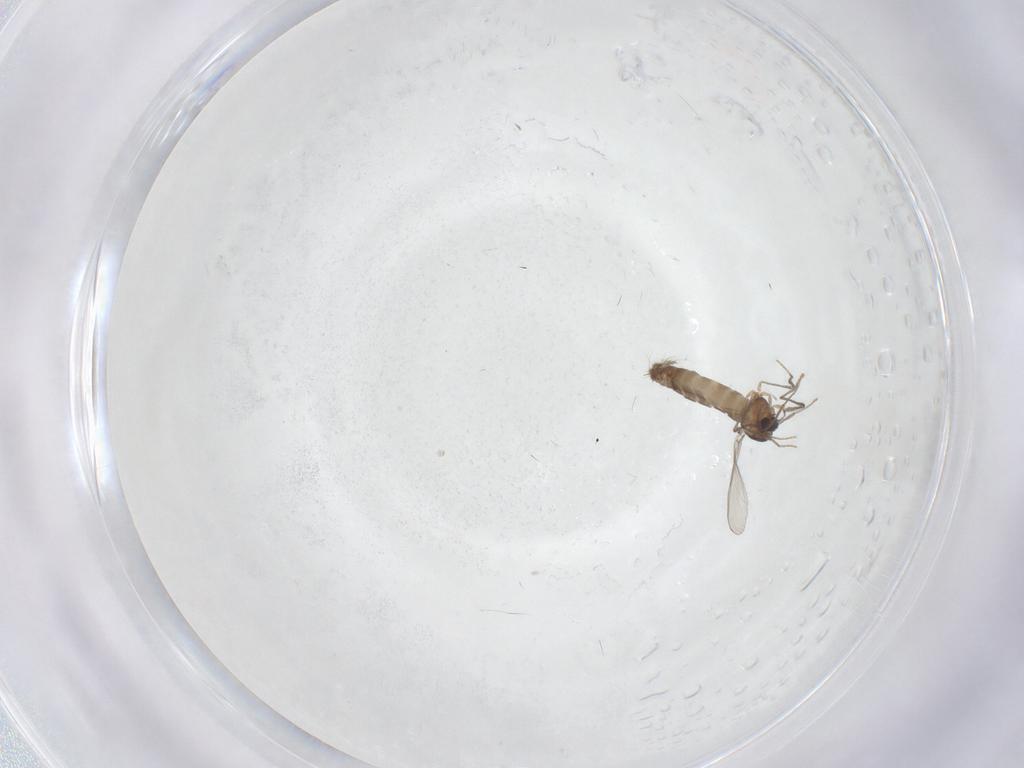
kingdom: Animalia
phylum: Arthropoda
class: Insecta
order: Diptera
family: Chironomidae
